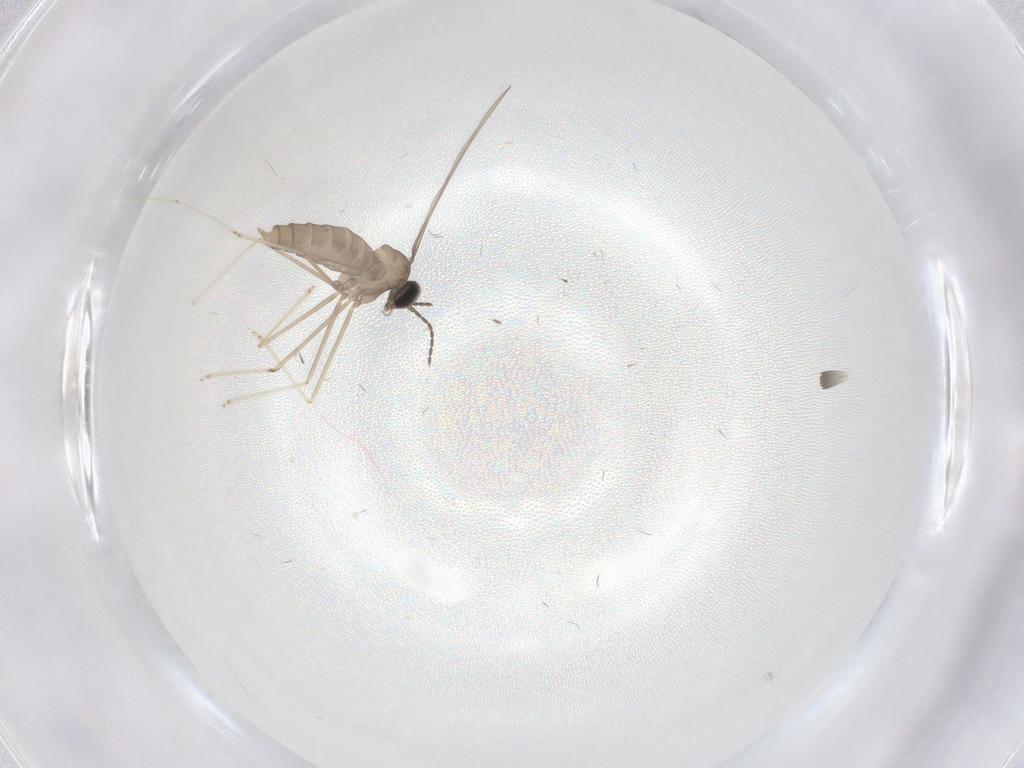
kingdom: Animalia
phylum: Arthropoda
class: Insecta
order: Diptera
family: Cecidomyiidae
